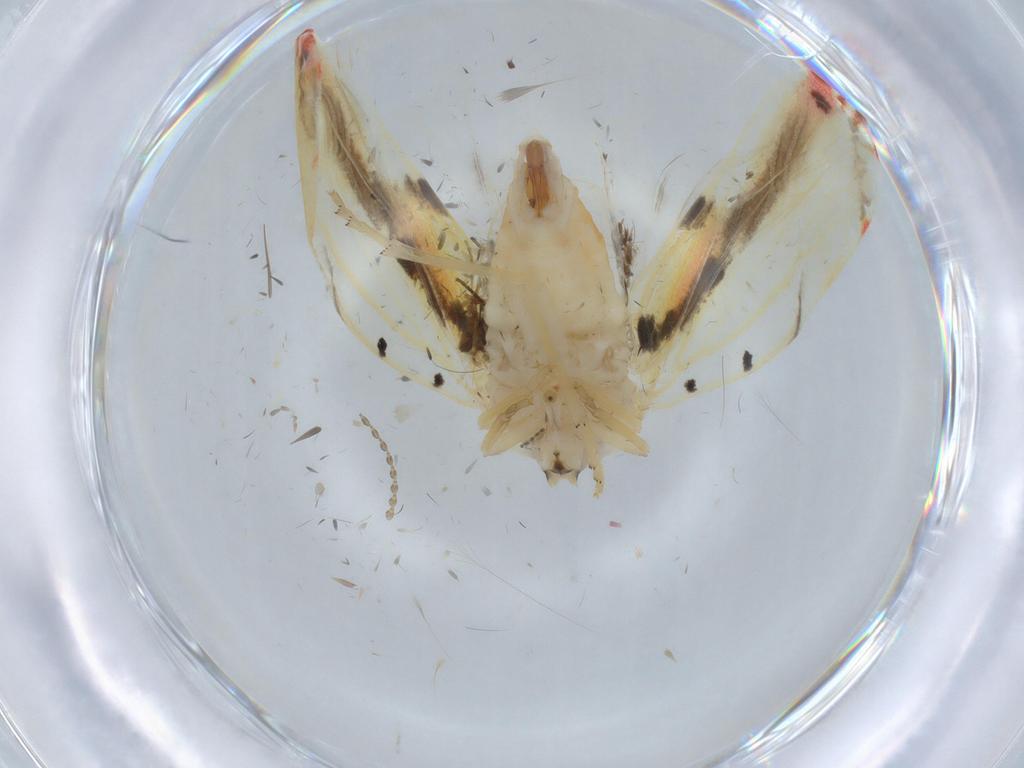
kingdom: Animalia
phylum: Arthropoda
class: Insecta
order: Hemiptera
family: Derbidae
